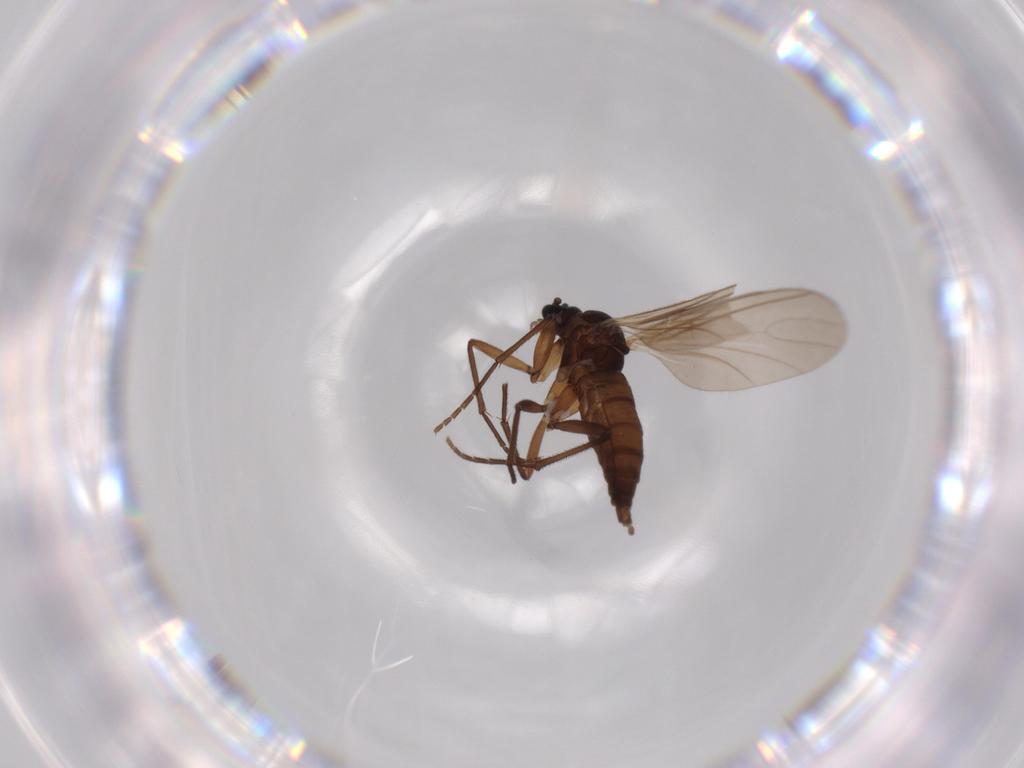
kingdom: Animalia
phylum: Arthropoda
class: Insecta
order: Diptera
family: Sciaridae
